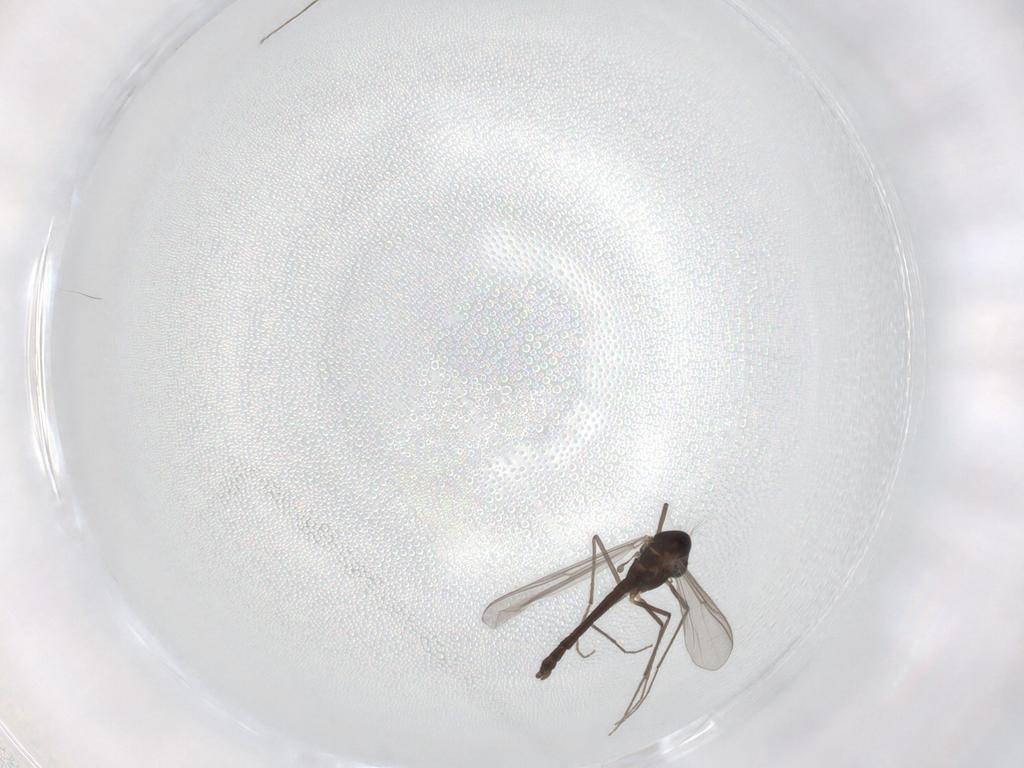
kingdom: Animalia
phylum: Arthropoda
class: Insecta
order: Diptera
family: Chironomidae
